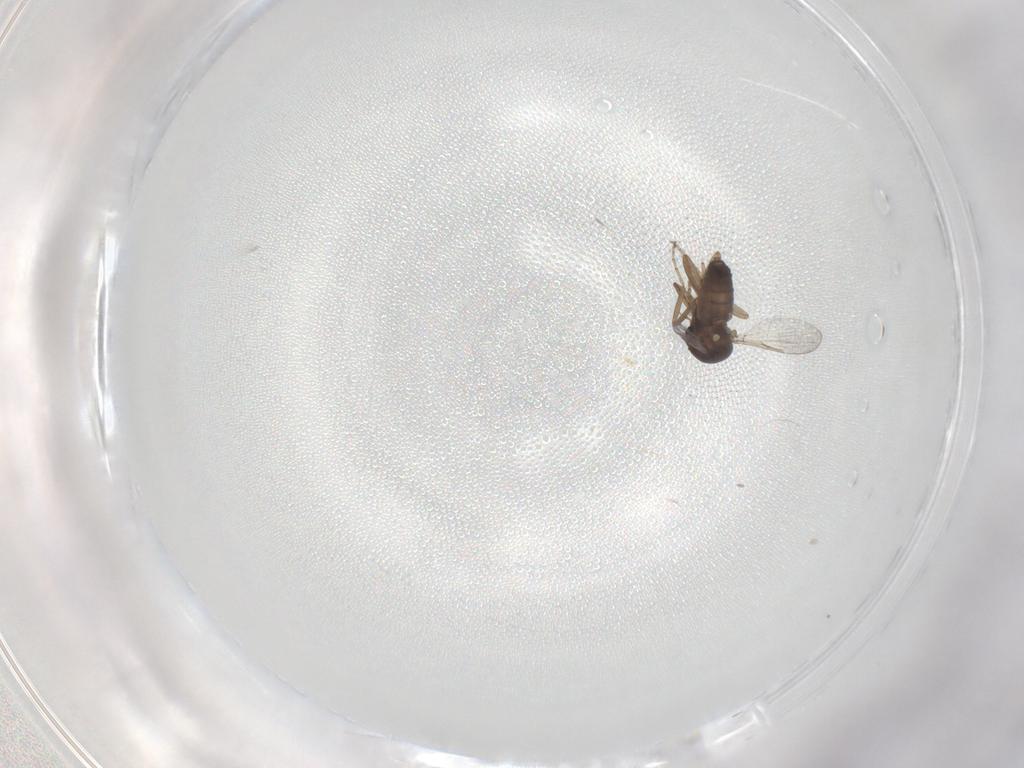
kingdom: Animalia
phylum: Arthropoda
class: Insecta
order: Diptera
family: Ceratopogonidae
